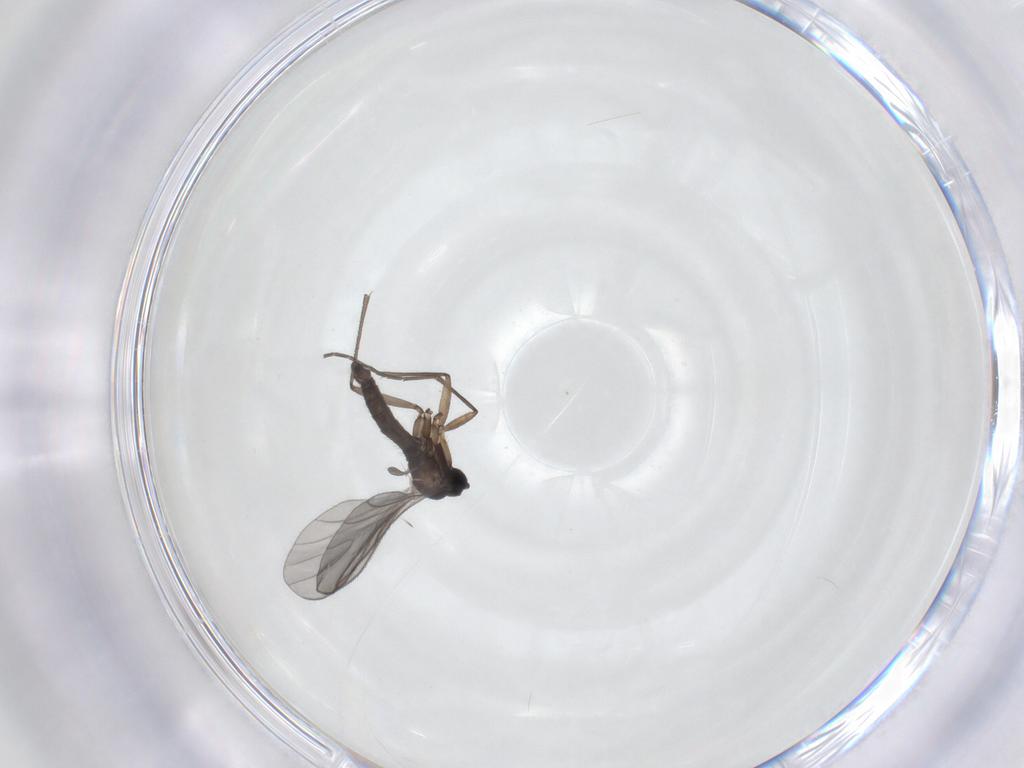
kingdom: Animalia
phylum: Arthropoda
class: Insecta
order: Diptera
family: Sciaridae
